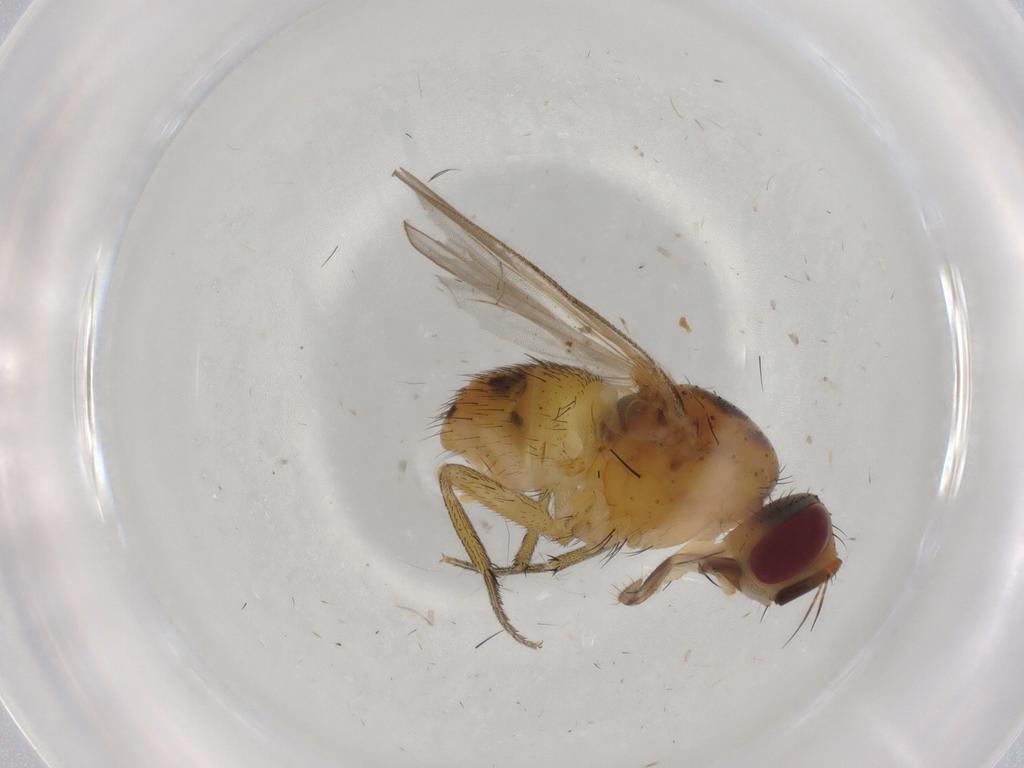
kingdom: Animalia
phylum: Arthropoda
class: Insecta
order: Diptera
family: Muscidae
